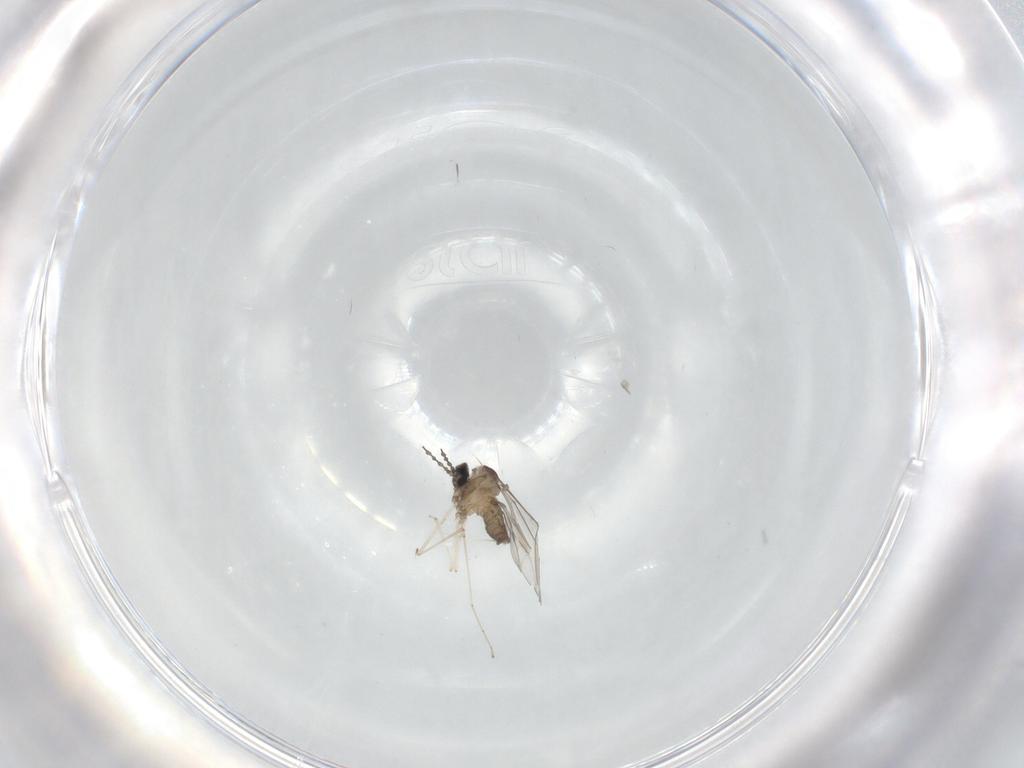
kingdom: Animalia
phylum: Arthropoda
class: Insecta
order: Diptera
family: Cecidomyiidae
